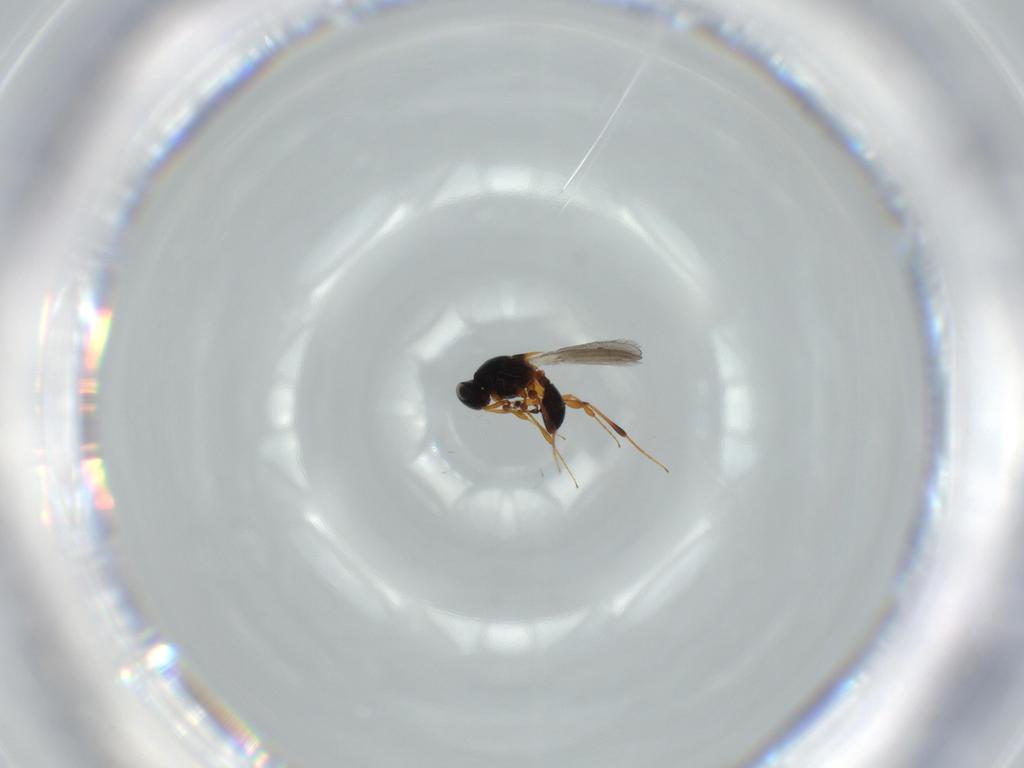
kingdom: Animalia
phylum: Arthropoda
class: Insecta
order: Hymenoptera
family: Platygastridae
